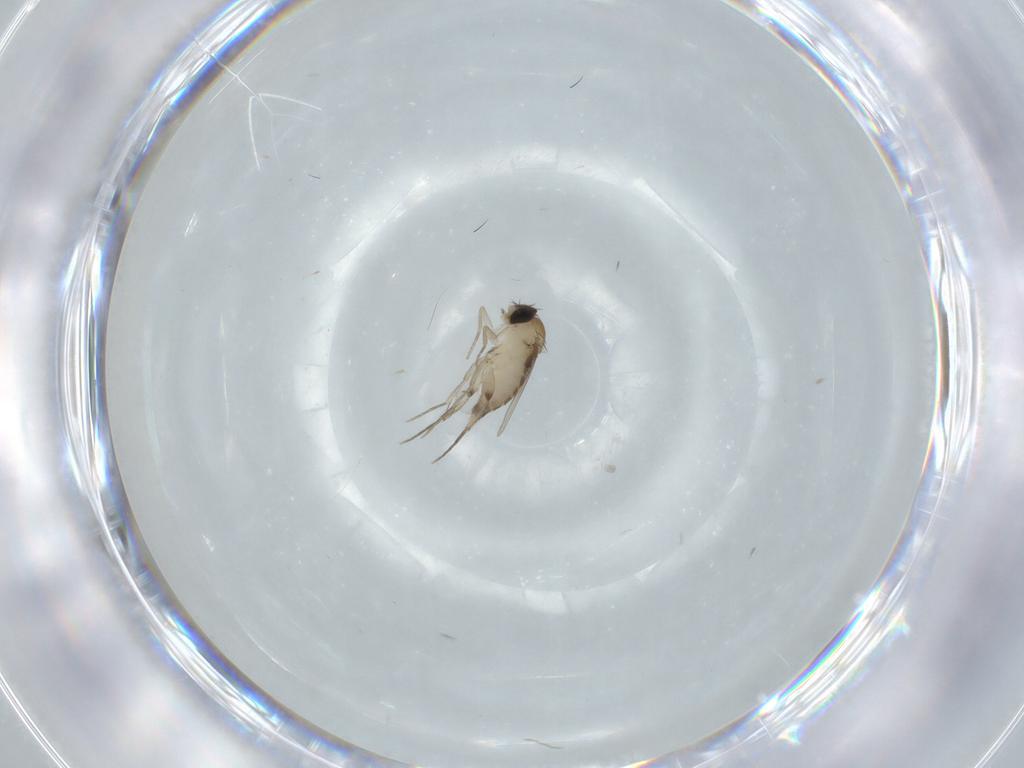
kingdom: Animalia
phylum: Arthropoda
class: Insecta
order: Diptera
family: Phoridae
